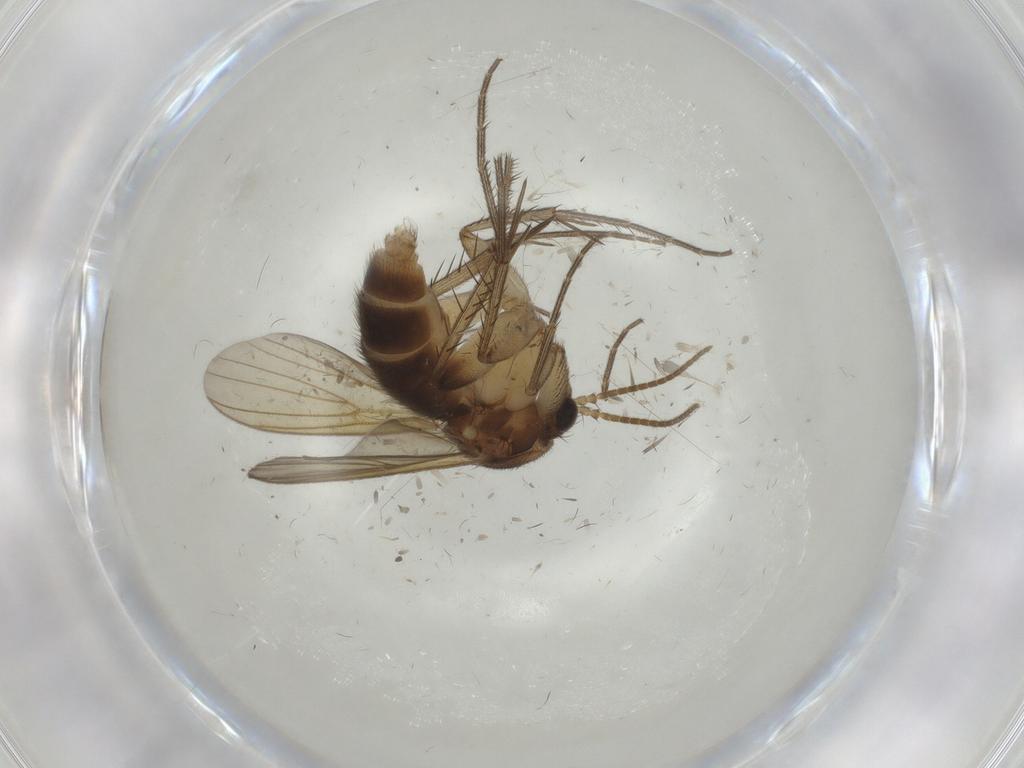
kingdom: Animalia
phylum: Arthropoda
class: Insecta
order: Diptera
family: Mycetophilidae
